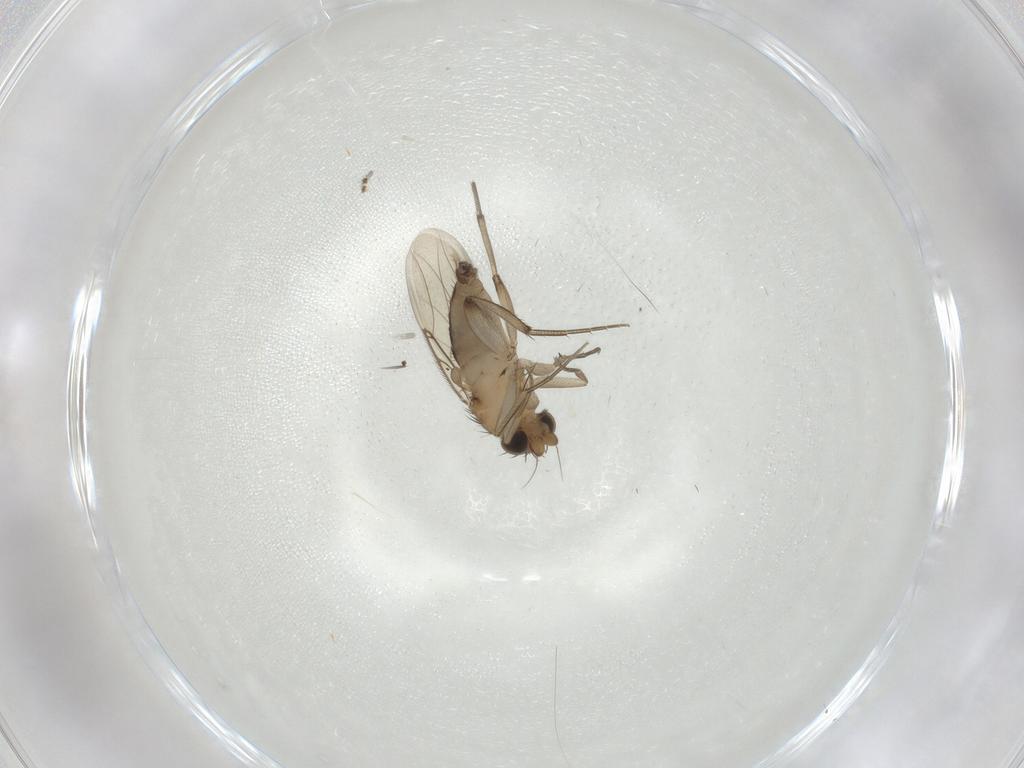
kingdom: Animalia
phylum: Arthropoda
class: Insecta
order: Diptera
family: Phoridae
